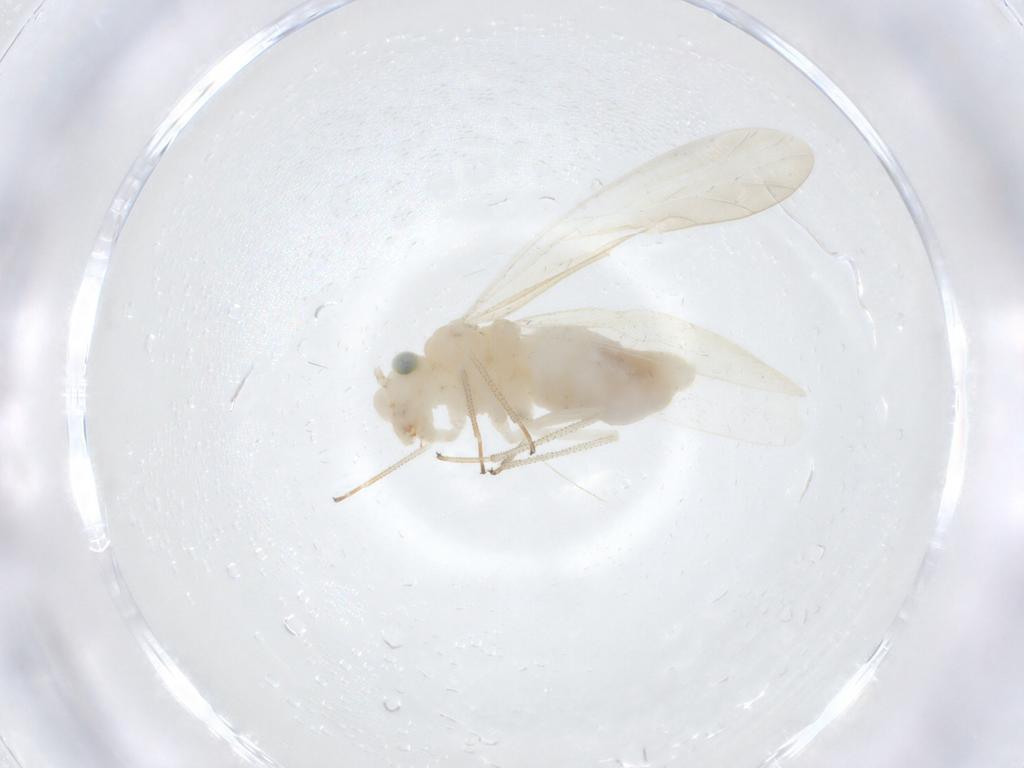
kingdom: Animalia
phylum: Arthropoda
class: Insecta
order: Psocodea
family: Caeciliusidae
